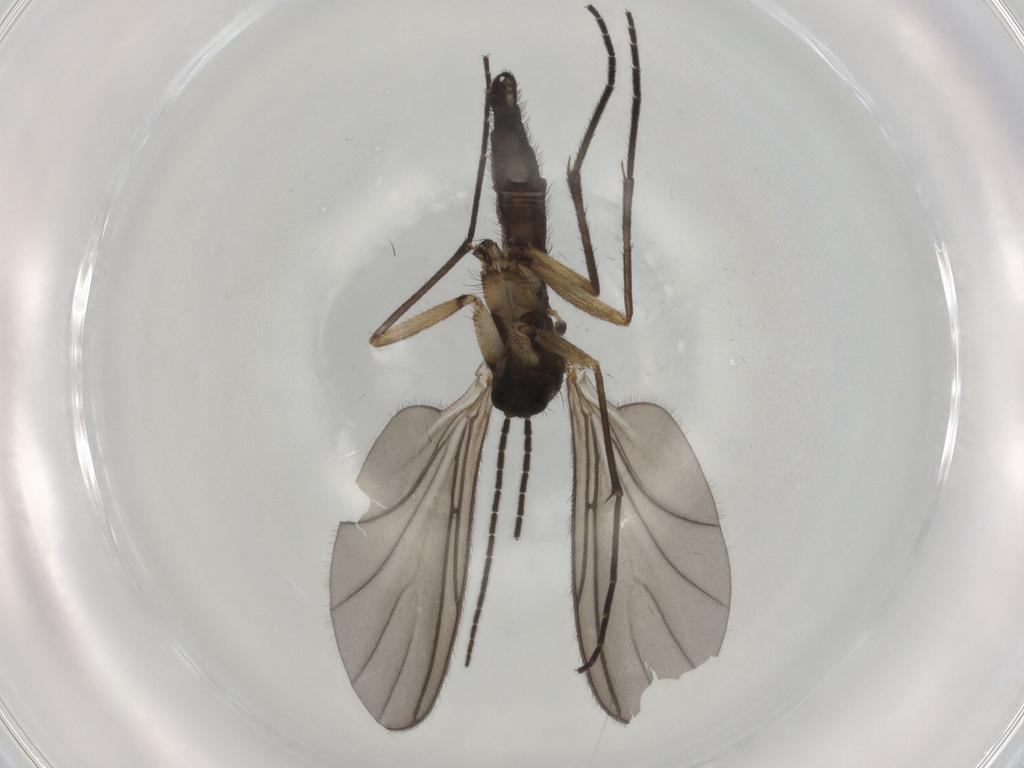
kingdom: Animalia
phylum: Arthropoda
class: Insecta
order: Diptera
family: Sciaridae
